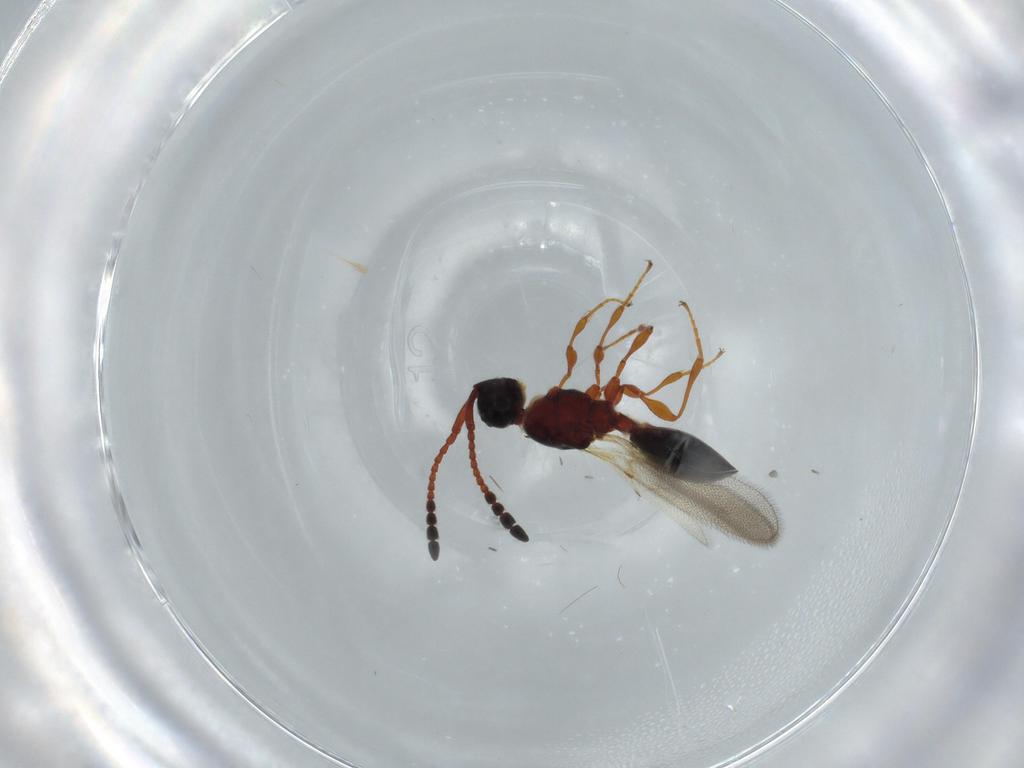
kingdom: Animalia
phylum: Arthropoda
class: Insecta
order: Hymenoptera
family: Diapriidae
